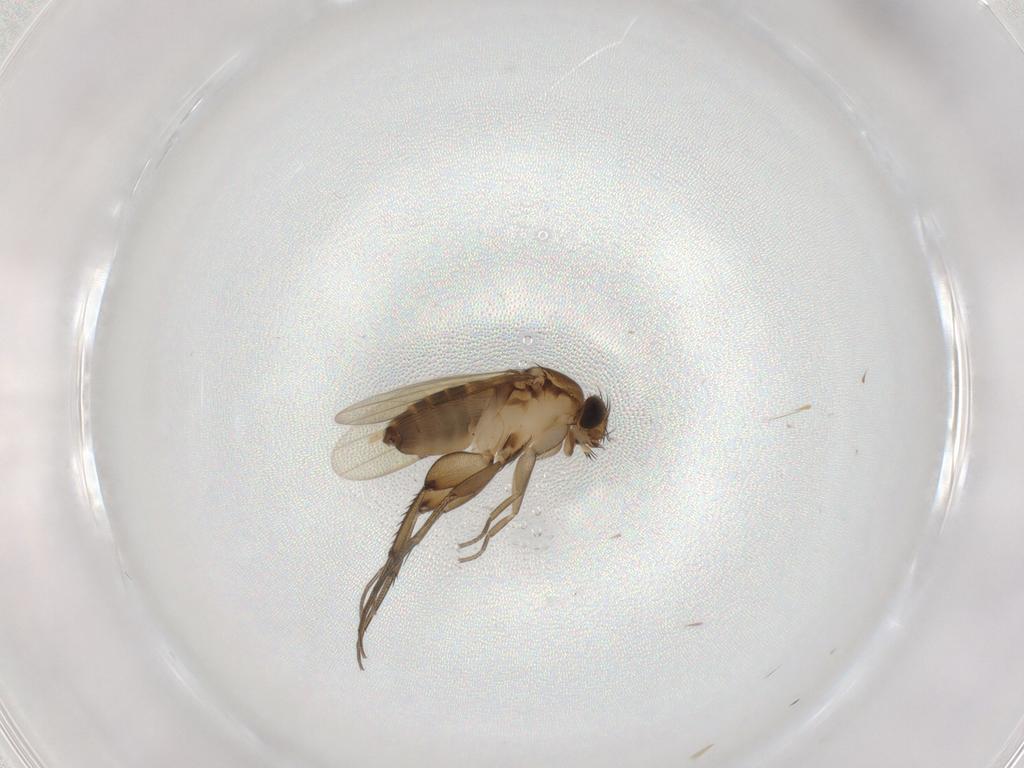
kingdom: Animalia
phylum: Arthropoda
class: Insecta
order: Diptera
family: Phoridae
